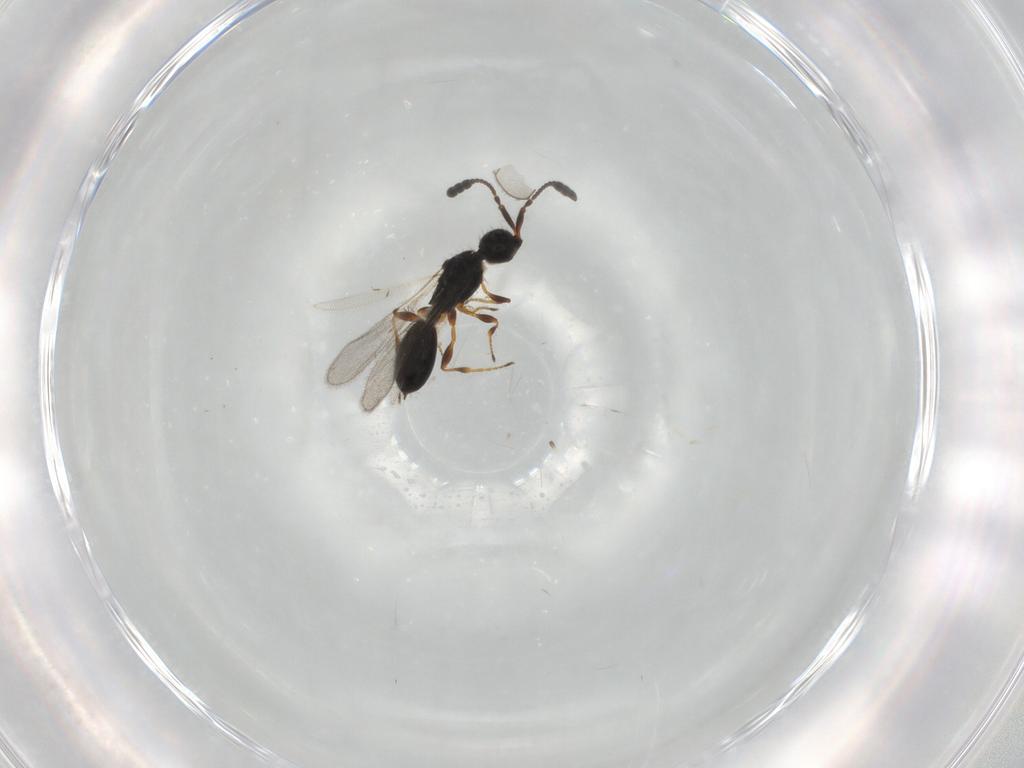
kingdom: Animalia
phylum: Arthropoda
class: Insecta
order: Hymenoptera
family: Diapriidae
